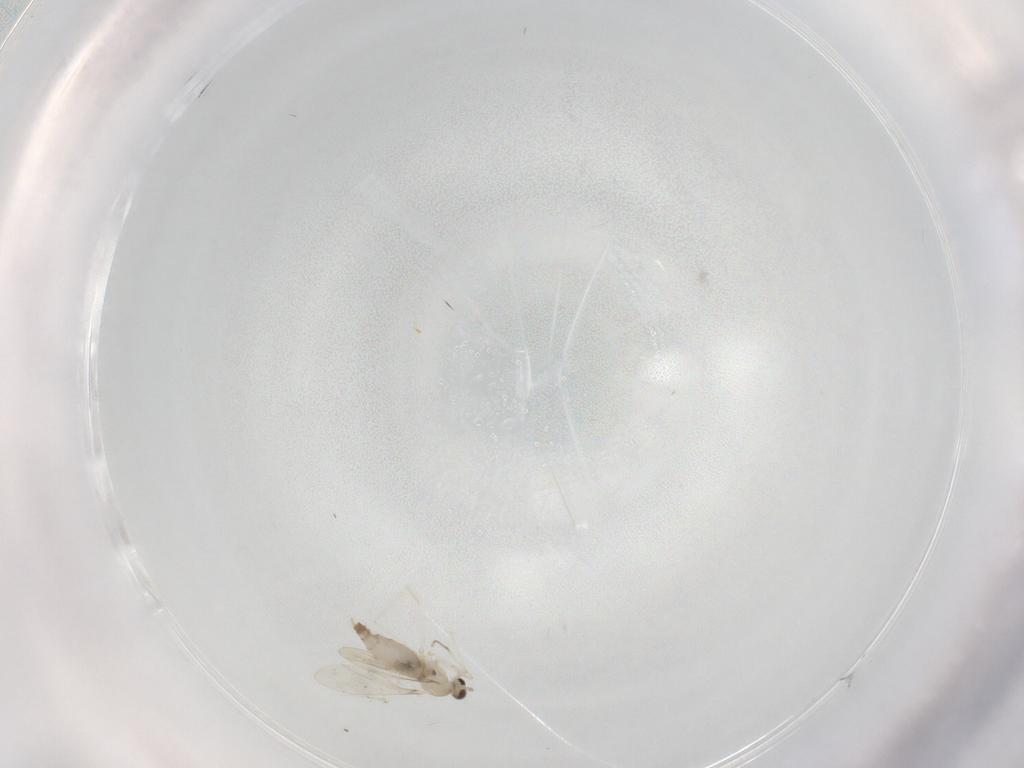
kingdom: Animalia
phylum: Arthropoda
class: Insecta
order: Diptera
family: Cecidomyiidae
